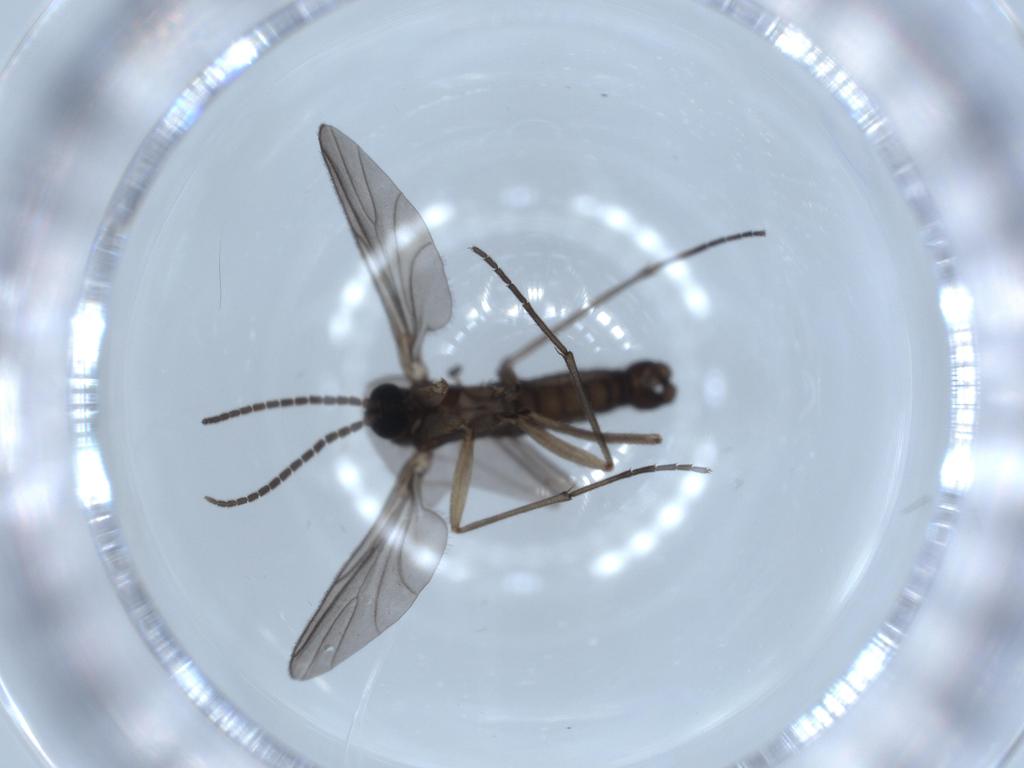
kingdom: Animalia
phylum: Arthropoda
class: Insecta
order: Diptera
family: Sciaridae
